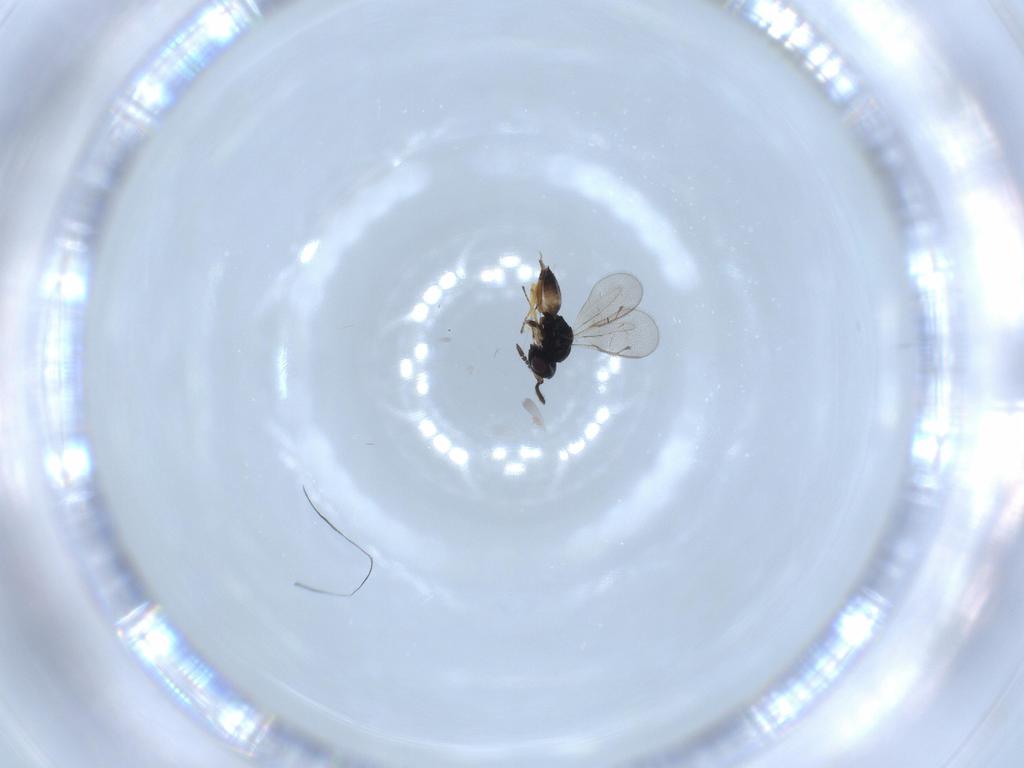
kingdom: Animalia
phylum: Arthropoda
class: Insecta
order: Hymenoptera
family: Eulophidae
